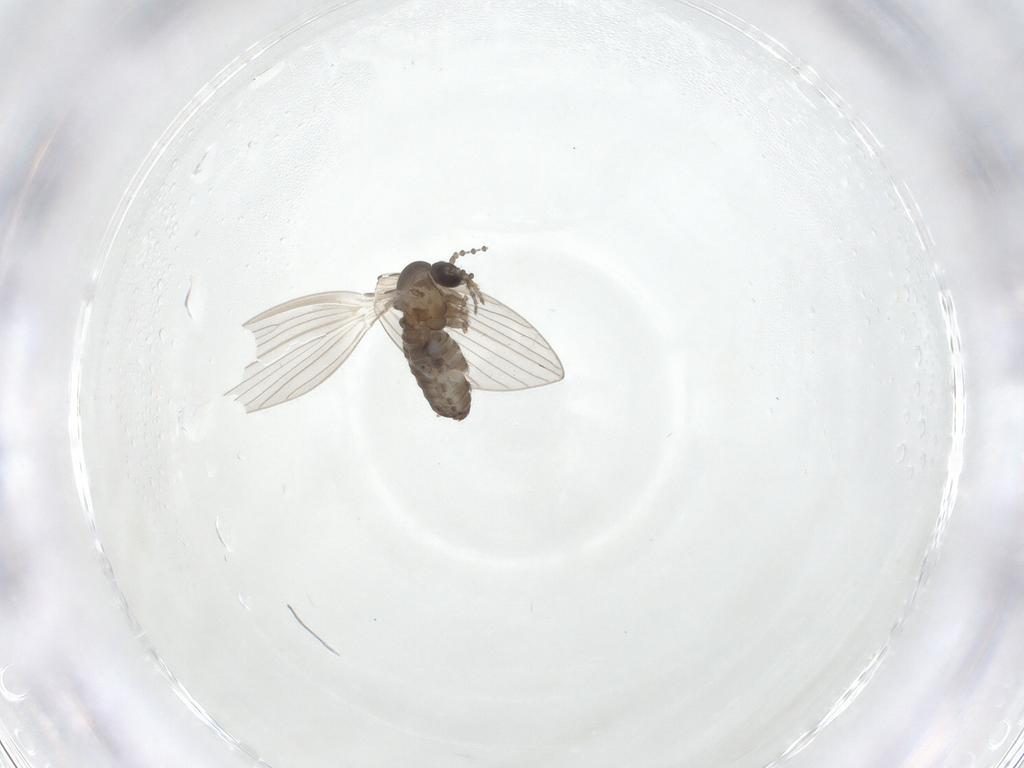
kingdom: Animalia
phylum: Arthropoda
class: Insecta
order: Diptera
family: Psychodidae
